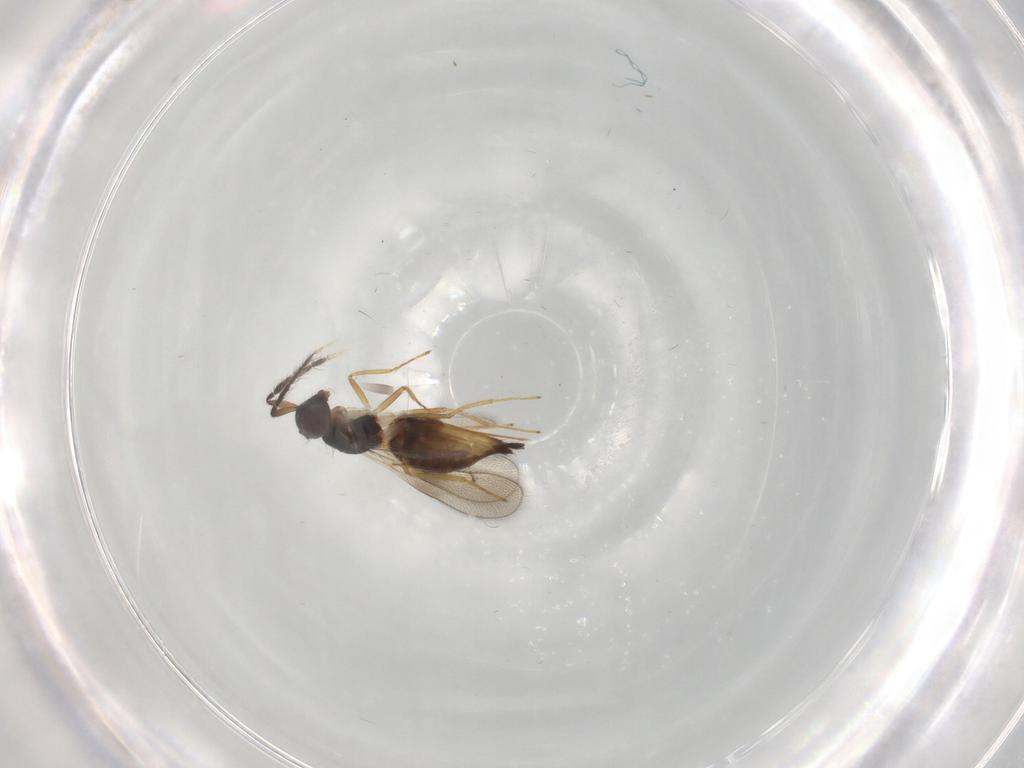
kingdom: Animalia
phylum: Arthropoda
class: Insecta
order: Hymenoptera
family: Eulophidae
